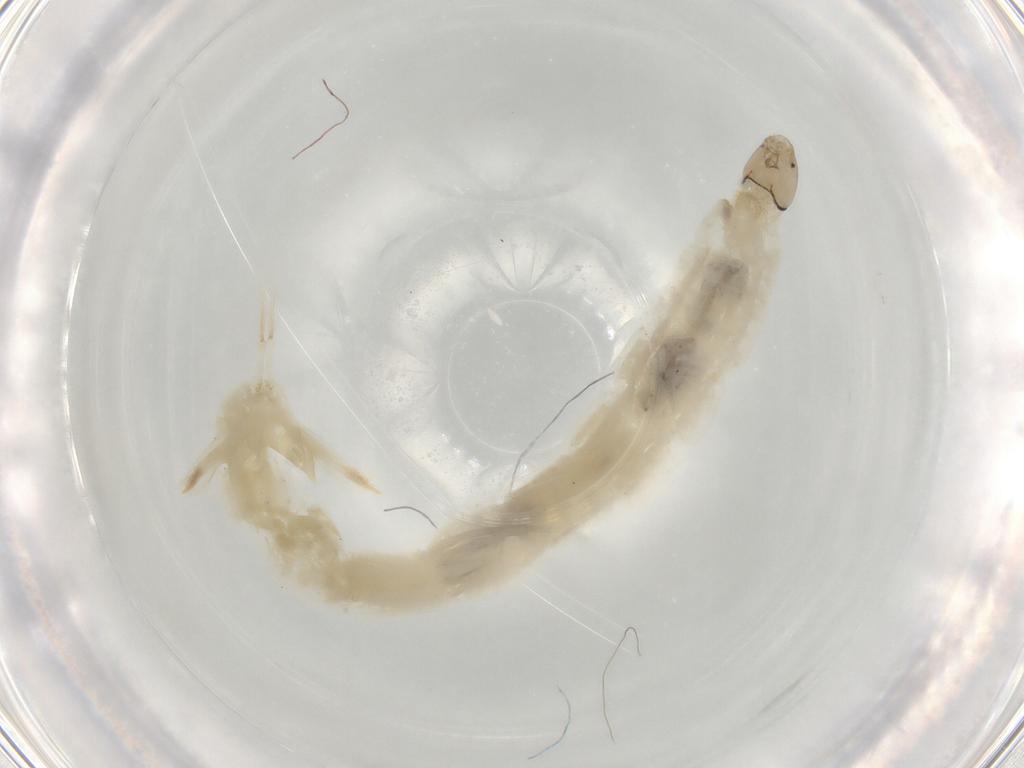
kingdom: Animalia
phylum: Arthropoda
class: Insecta
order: Diptera
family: Chironomidae
